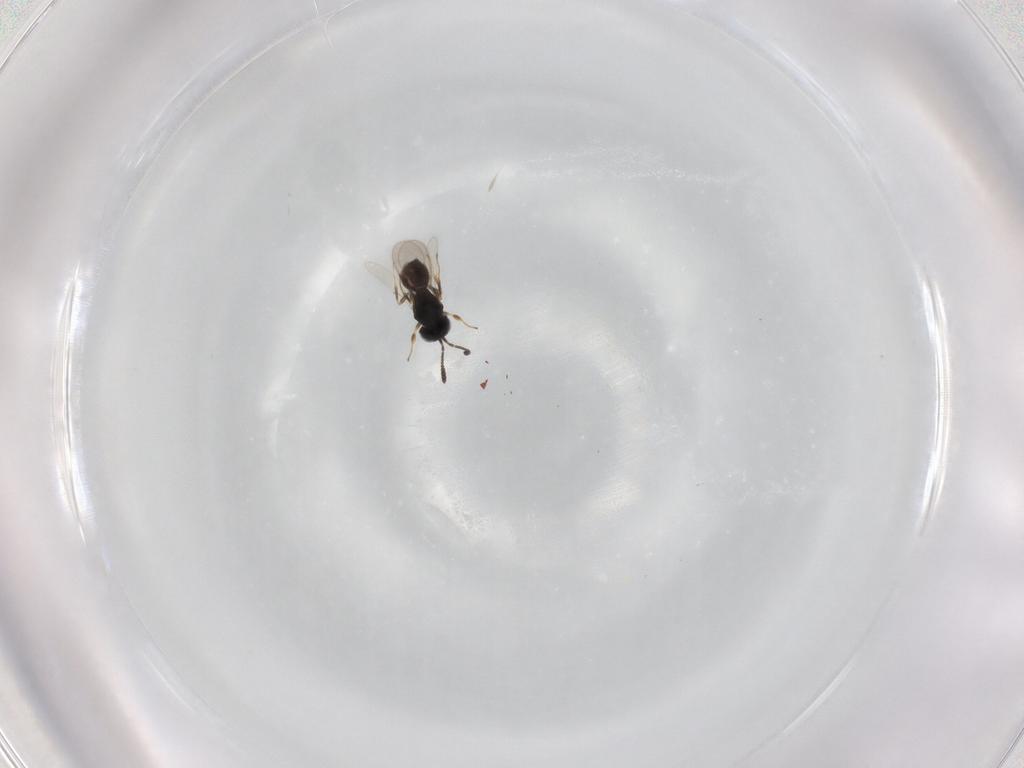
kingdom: Animalia
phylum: Arthropoda
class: Insecta
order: Hymenoptera
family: Scelionidae
